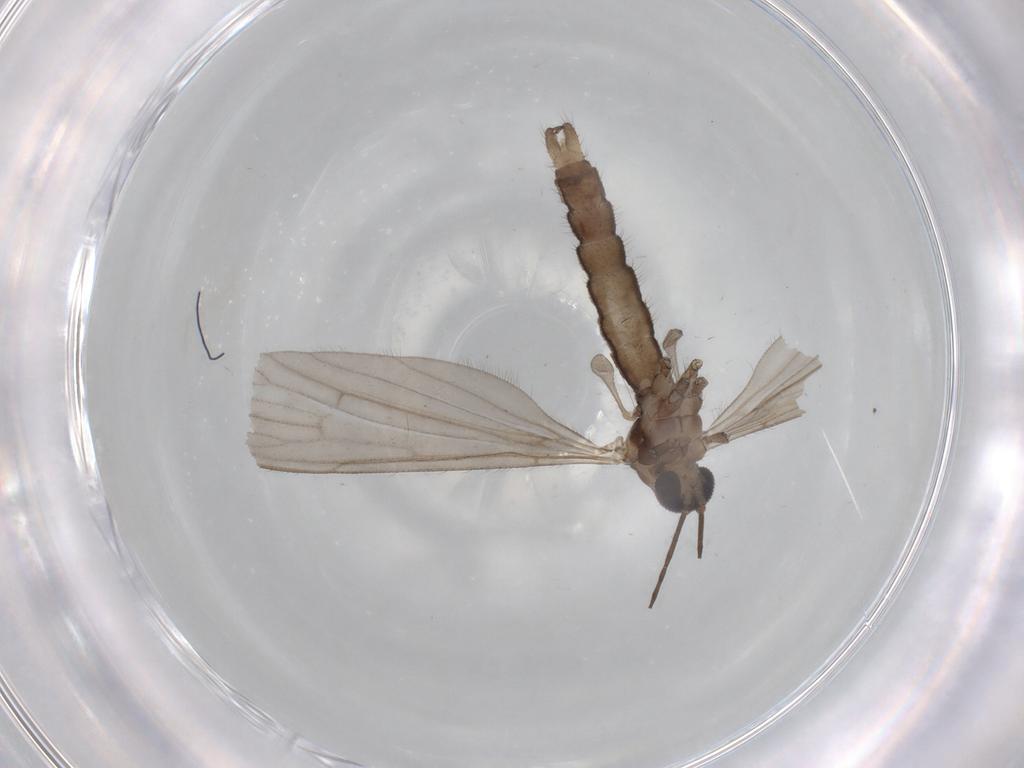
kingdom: Animalia
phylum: Arthropoda
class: Insecta
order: Diptera
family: Limoniidae
